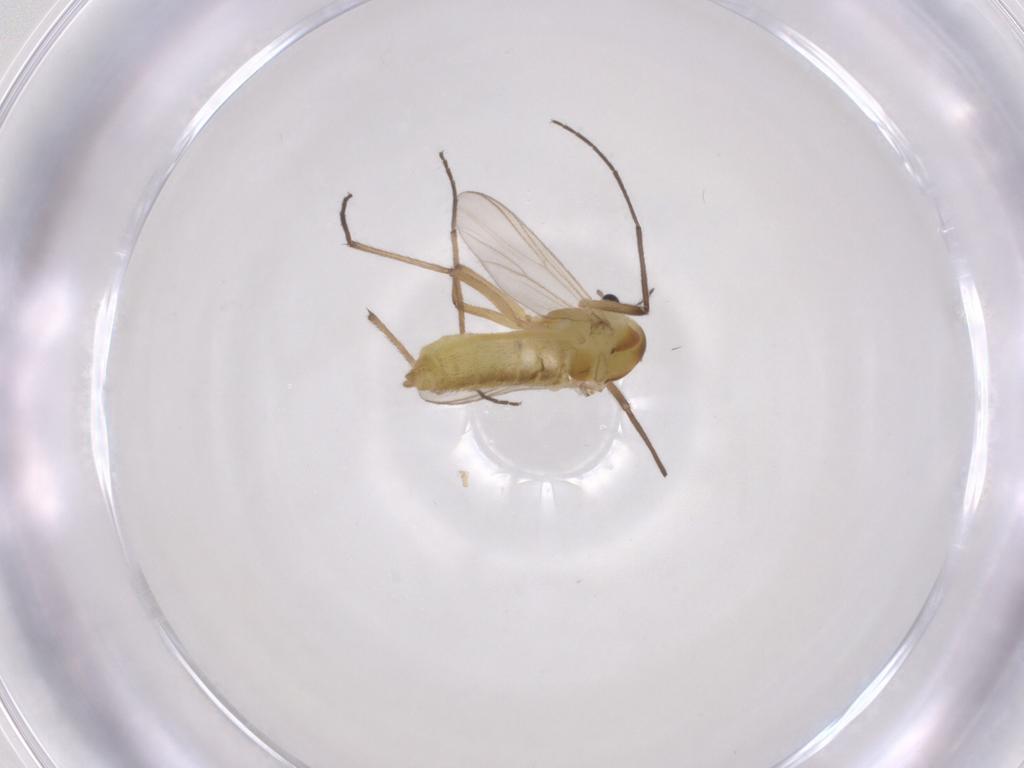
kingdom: Animalia
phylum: Arthropoda
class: Insecta
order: Diptera
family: Chironomidae
